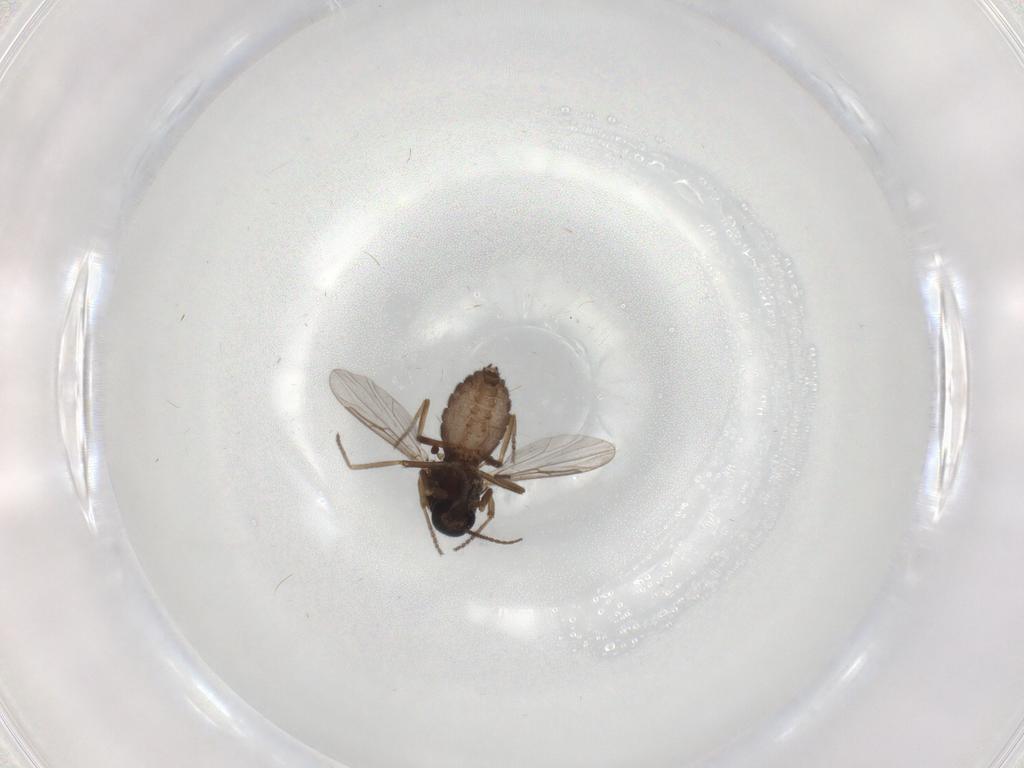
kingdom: Animalia
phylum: Arthropoda
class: Insecta
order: Diptera
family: Ceratopogonidae
